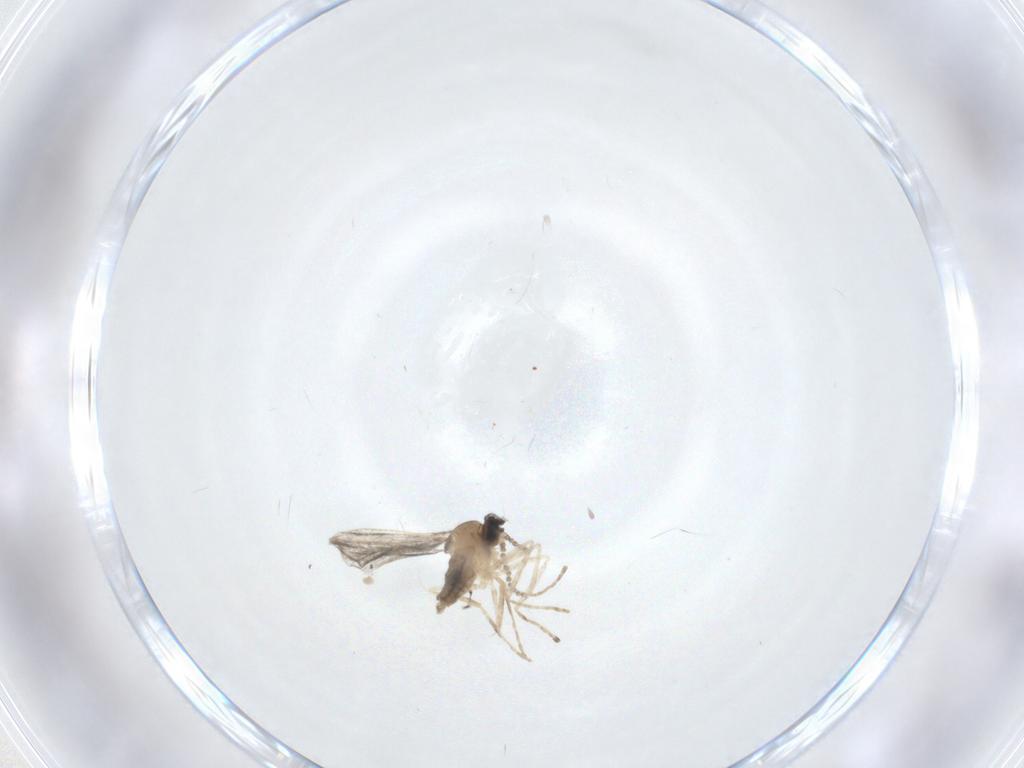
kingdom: Animalia
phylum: Arthropoda
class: Insecta
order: Diptera
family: Cecidomyiidae
